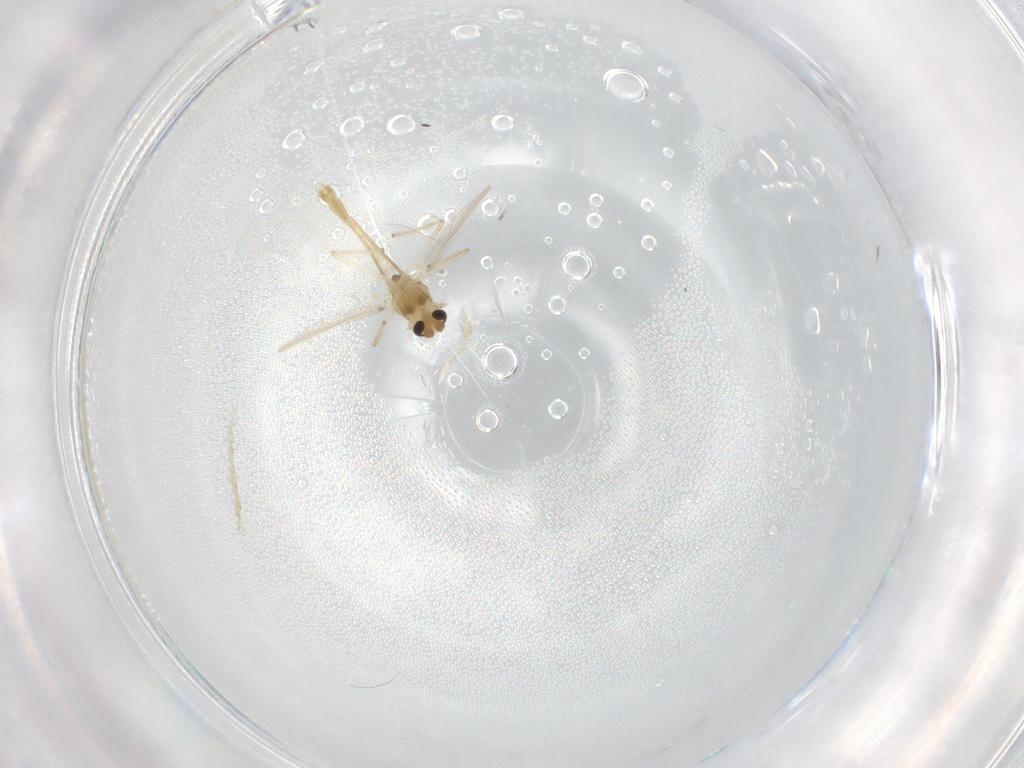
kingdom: Animalia
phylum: Arthropoda
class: Insecta
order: Diptera
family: Chironomidae
